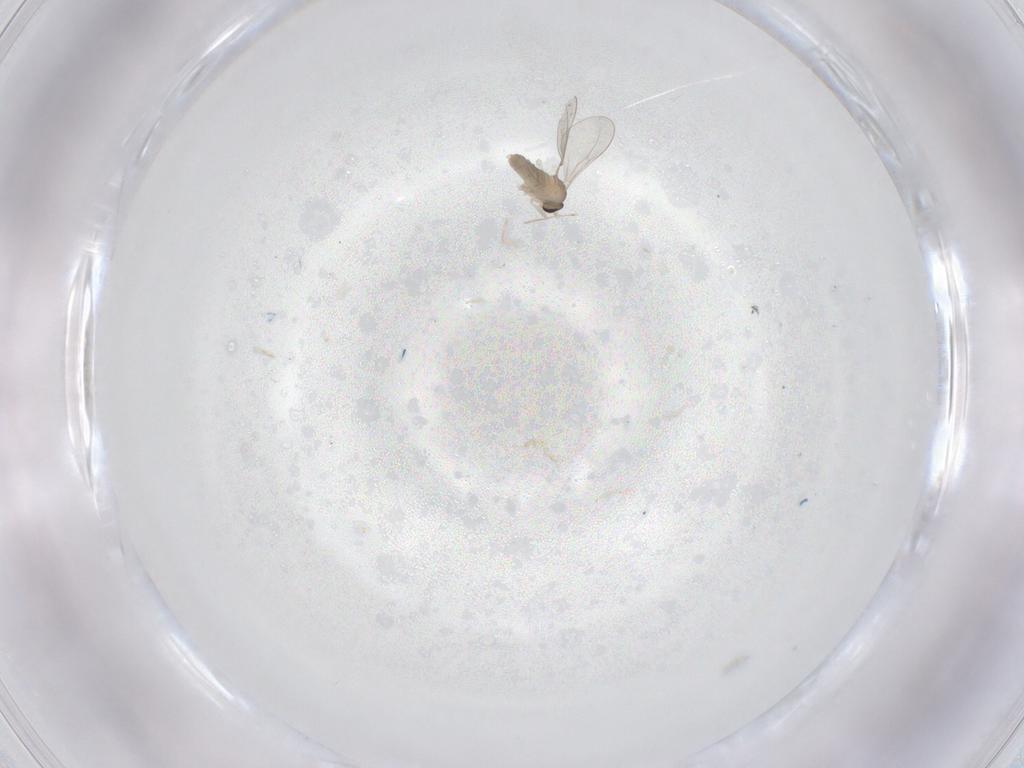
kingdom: Animalia
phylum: Arthropoda
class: Insecta
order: Diptera
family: Cecidomyiidae
